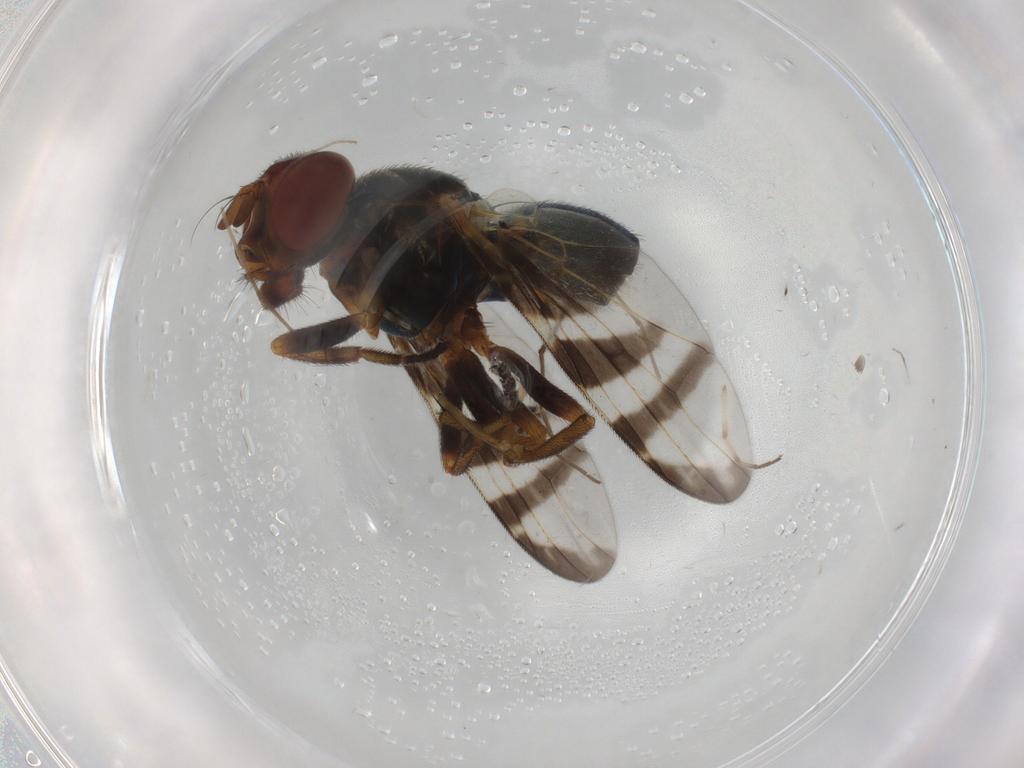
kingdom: Animalia
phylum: Arthropoda
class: Insecta
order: Diptera
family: Platystomatidae
